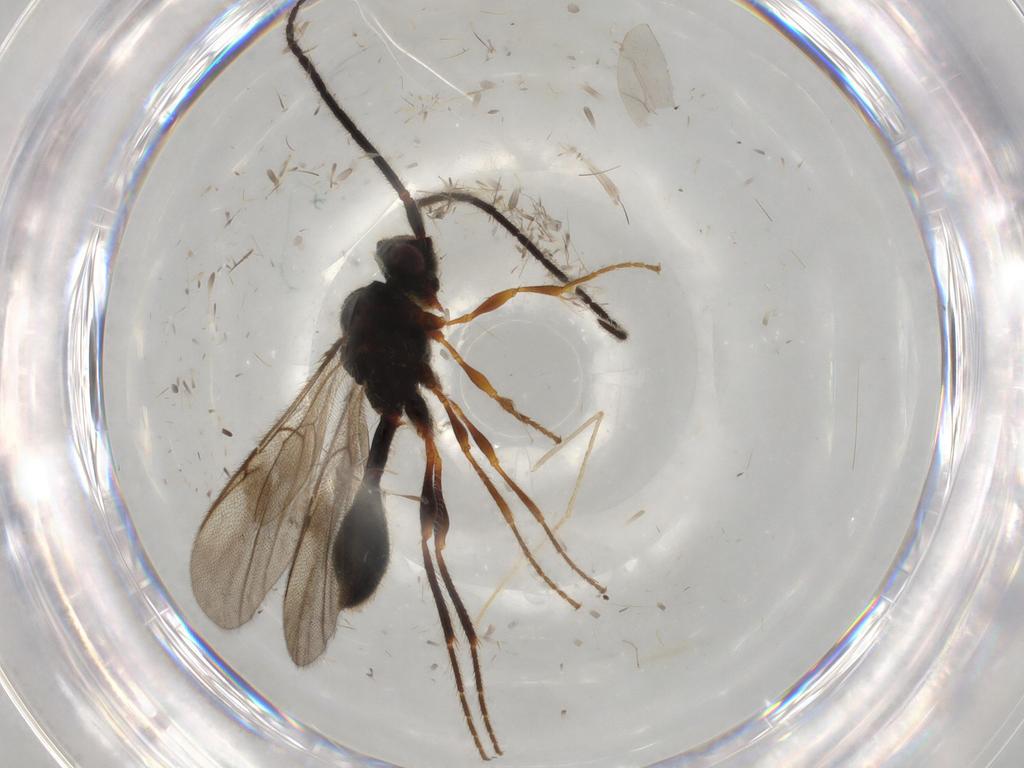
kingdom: Animalia
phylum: Arthropoda
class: Insecta
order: Hymenoptera
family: Diapriidae
